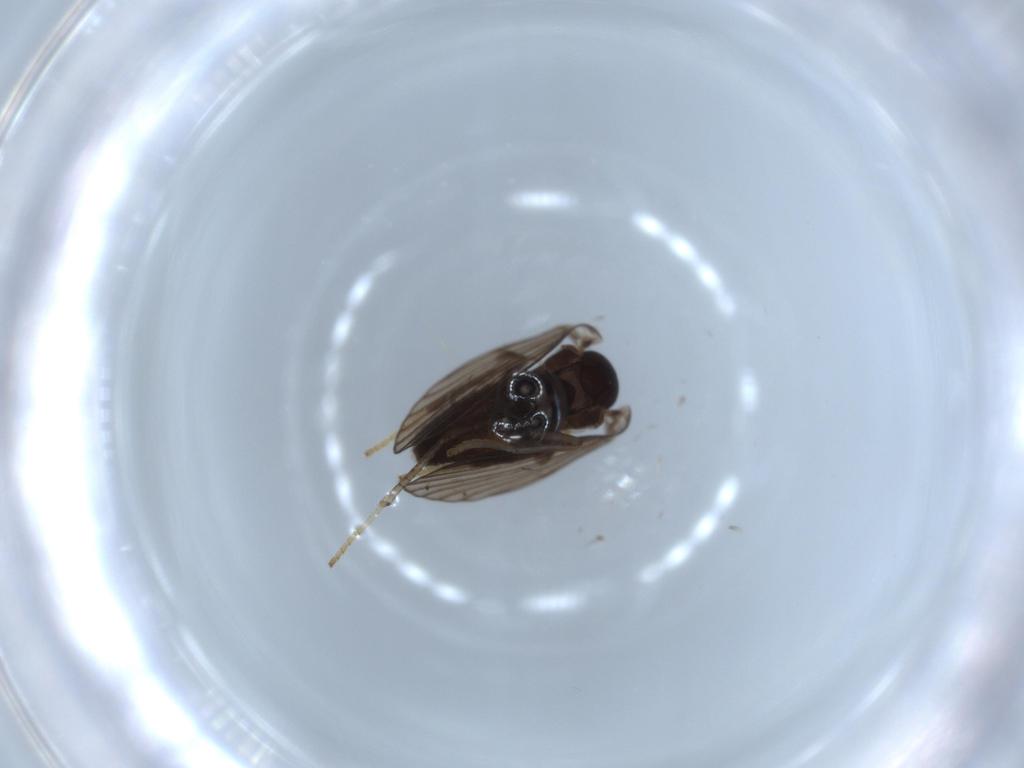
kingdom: Animalia
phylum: Arthropoda
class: Insecta
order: Diptera
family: Psychodidae
